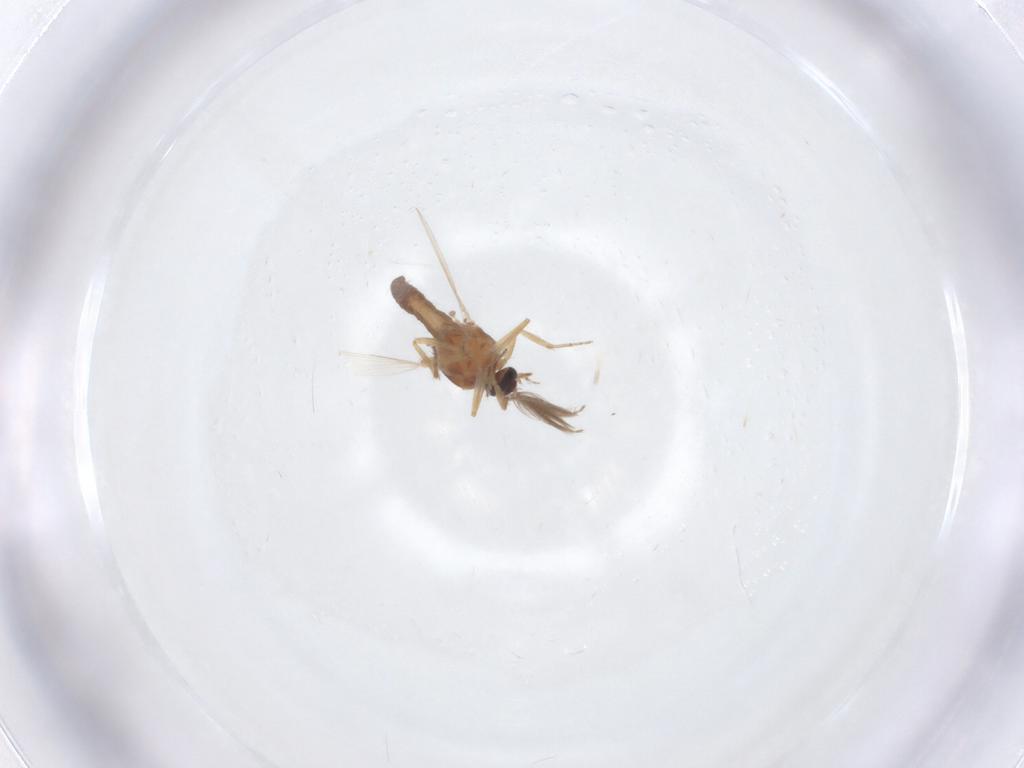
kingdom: Animalia
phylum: Arthropoda
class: Insecta
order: Diptera
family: Ceratopogonidae
